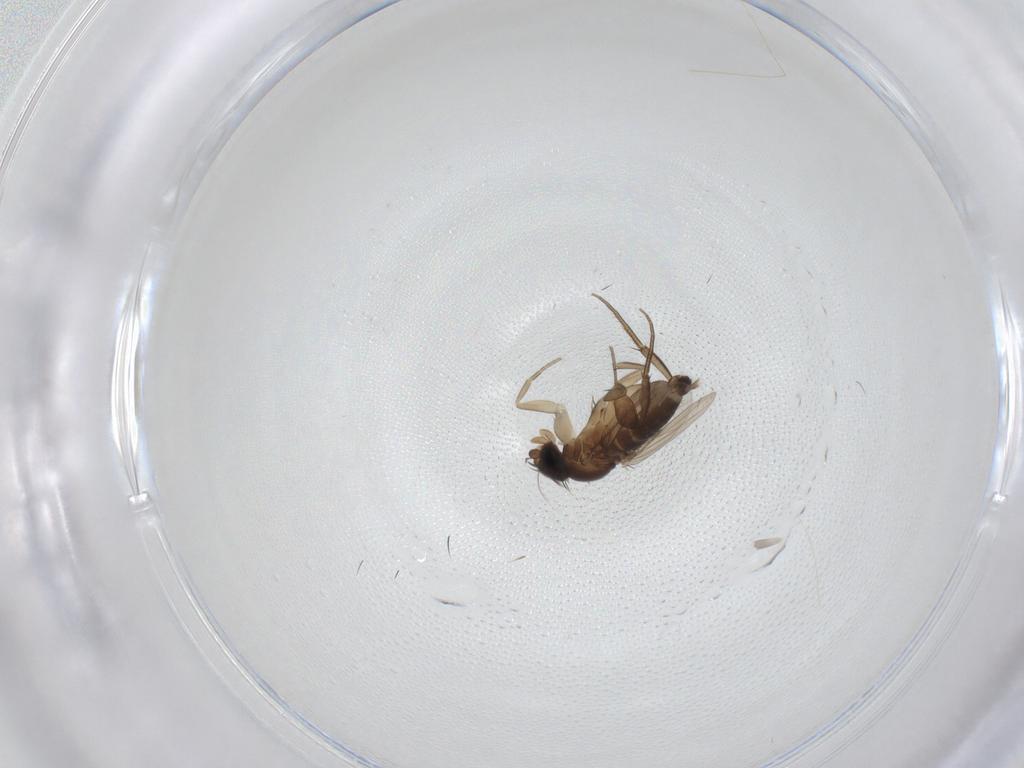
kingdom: Animalia
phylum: Arthropoda
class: Insecta
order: Diptera
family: Phoridae
